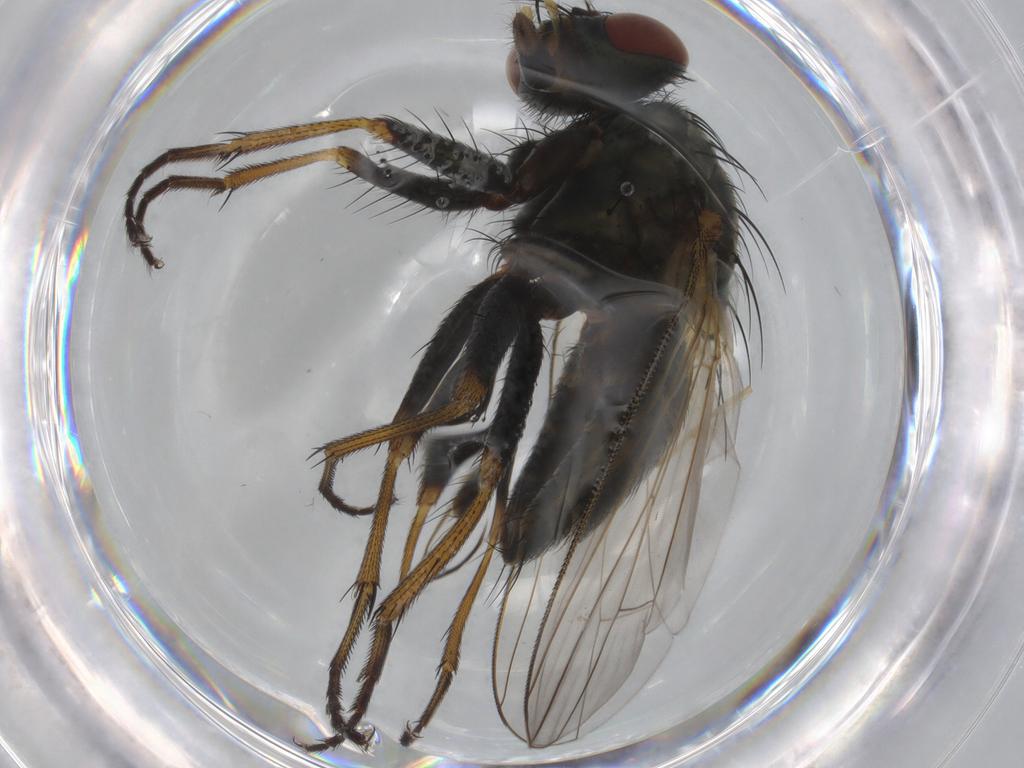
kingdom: Animalia
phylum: Arthropoda
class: Insecta
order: Diptera
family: Muscidae
